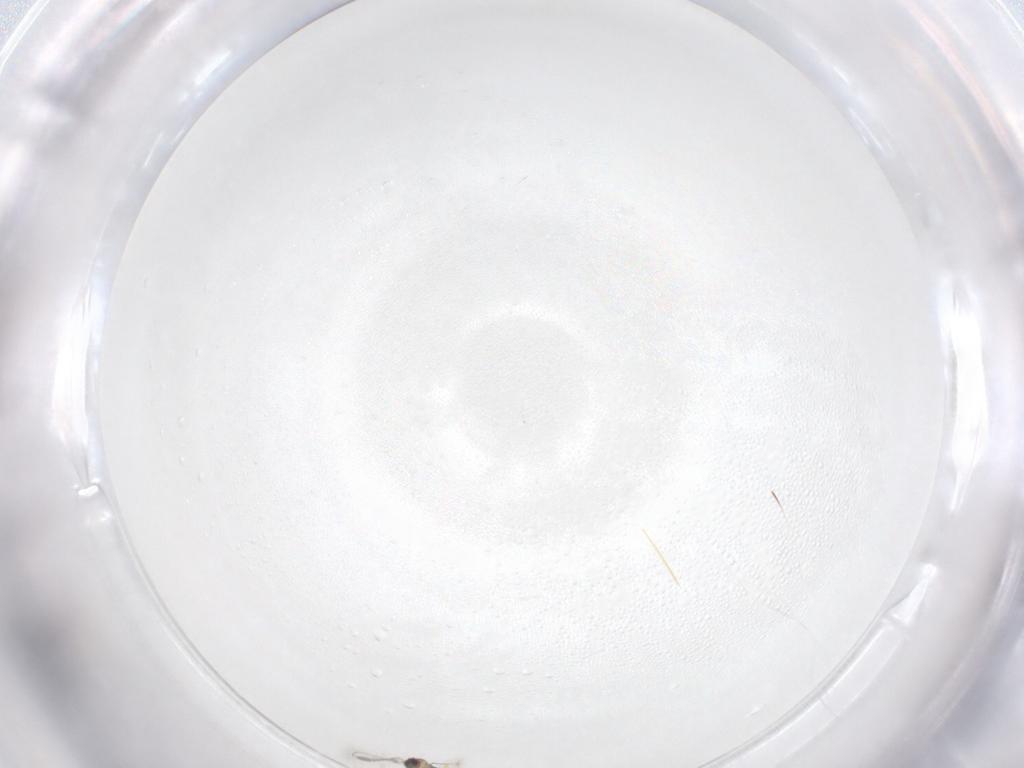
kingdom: Animalia
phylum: Arthropoda
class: Insecta
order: Hymenoptera
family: Mymaridae
